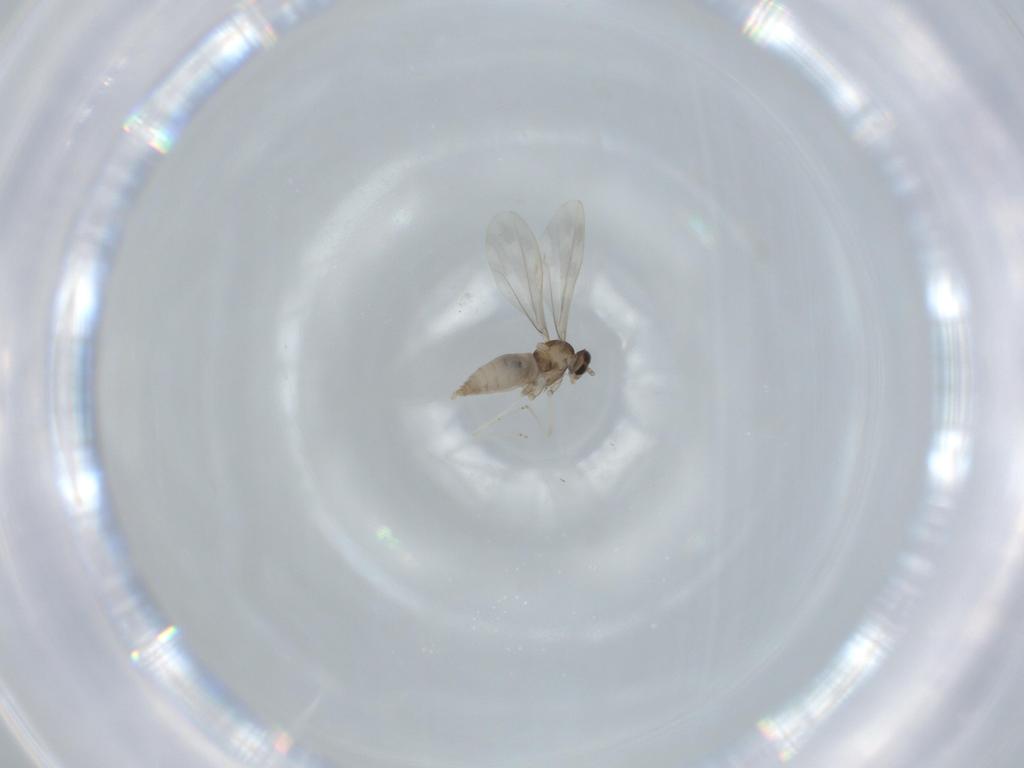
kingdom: Animalia
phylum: Arthropoda
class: Insecta
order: Diptera
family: Cecidomyiidae
